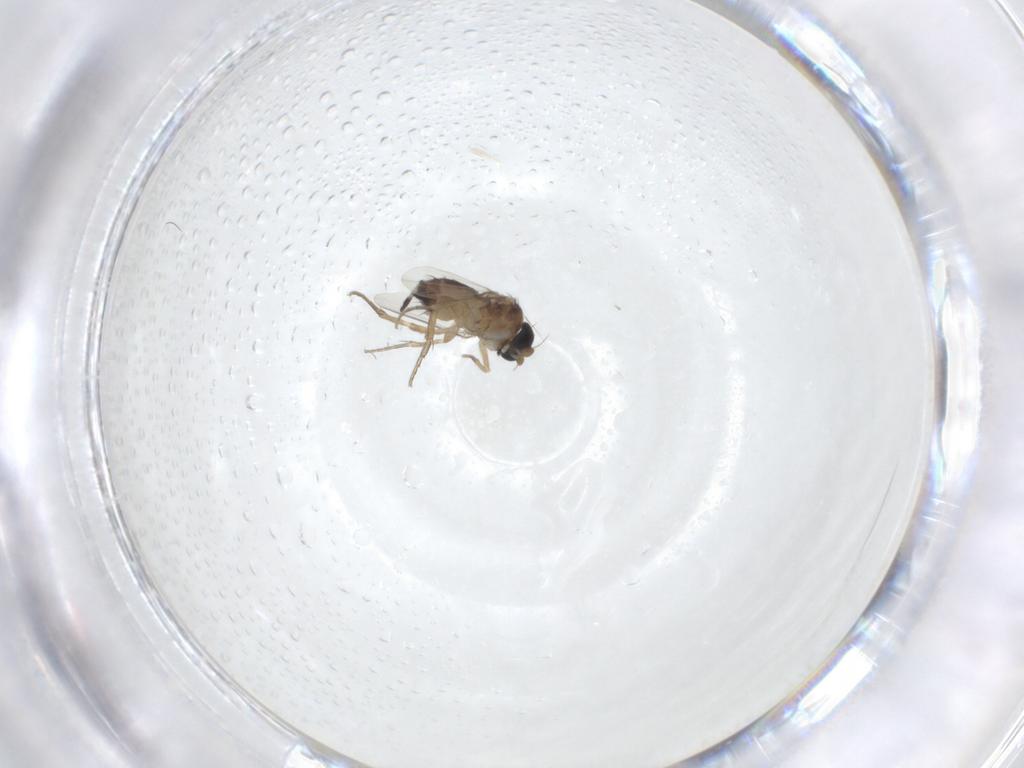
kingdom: Animalia
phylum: Arthropoda
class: Insecta
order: Diptera
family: Phoridae
